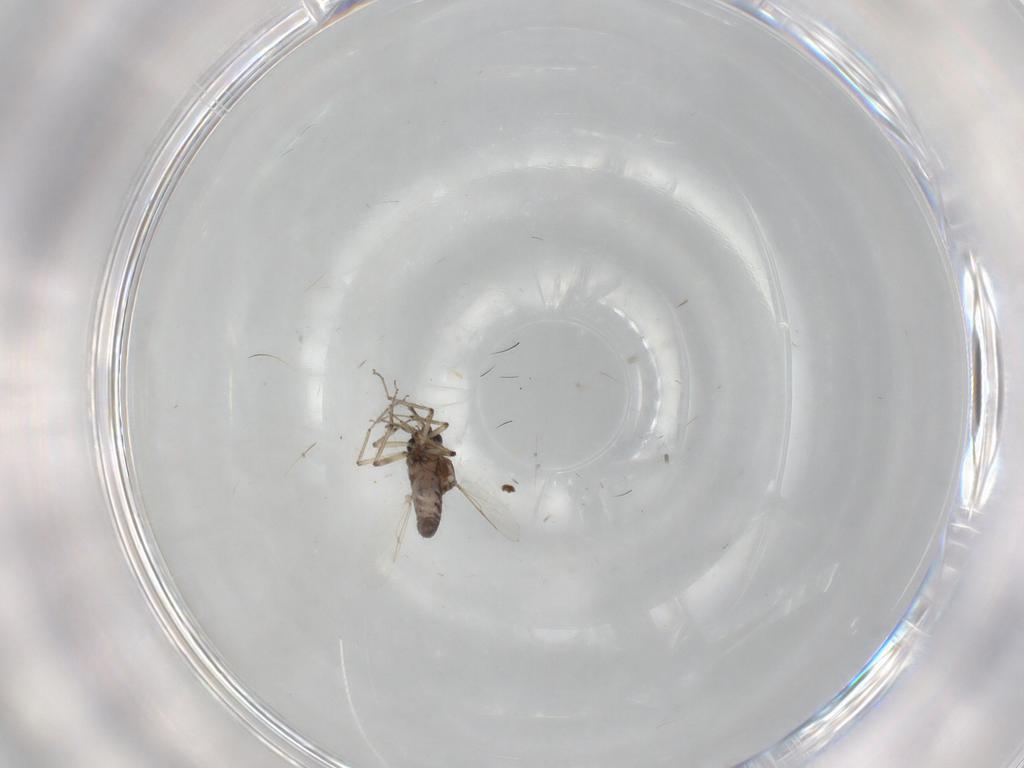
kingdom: Animalia
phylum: Arthropoda
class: Insecta
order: Diptera
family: Ceratopogonidae
